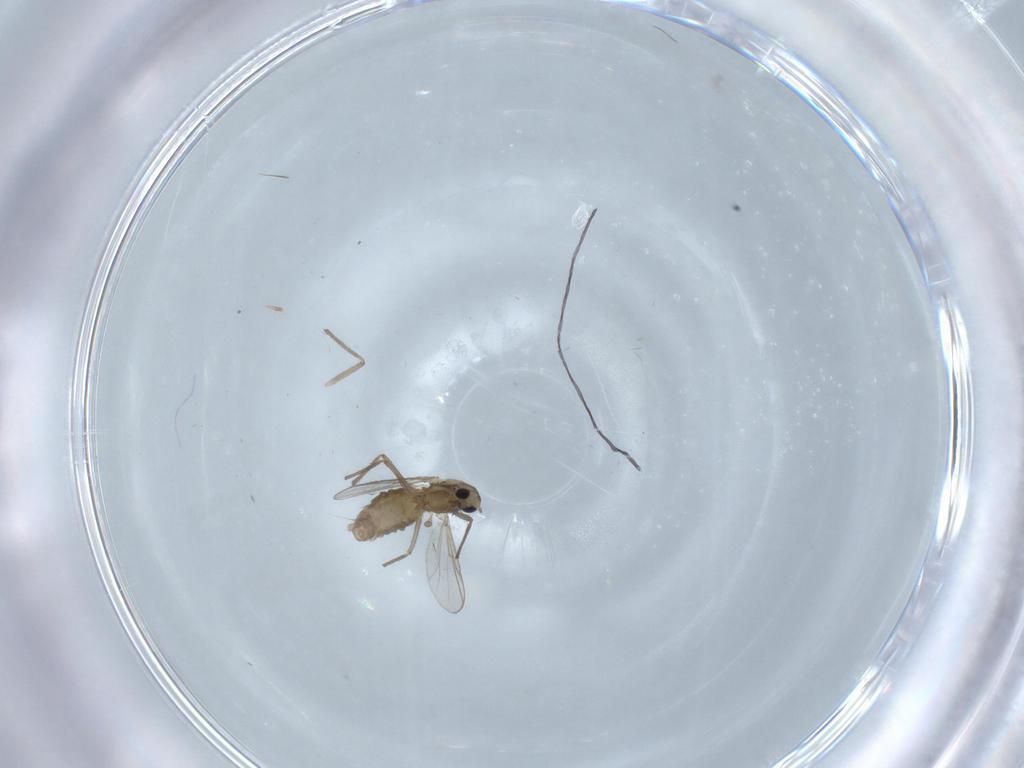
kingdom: Animalia
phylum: Arthropoda
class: Insecta
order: Diptera
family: Chironomidae
